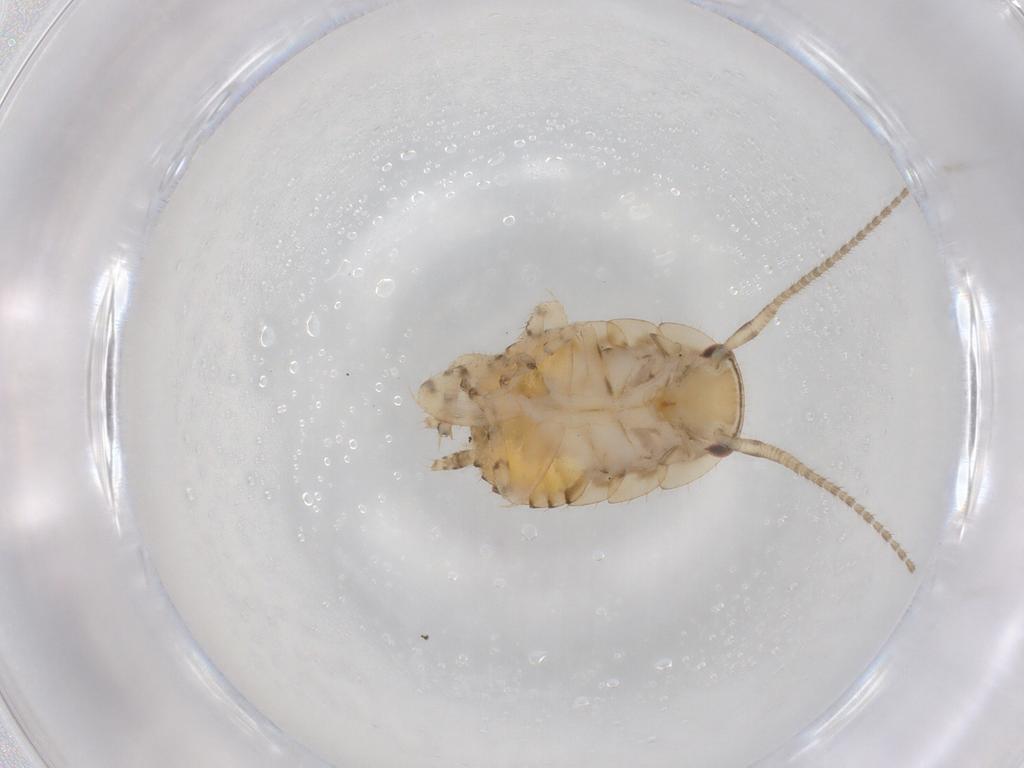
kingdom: Animalia
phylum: Arthropoda
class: Insecta
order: Blattodea
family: Ectobiidae
